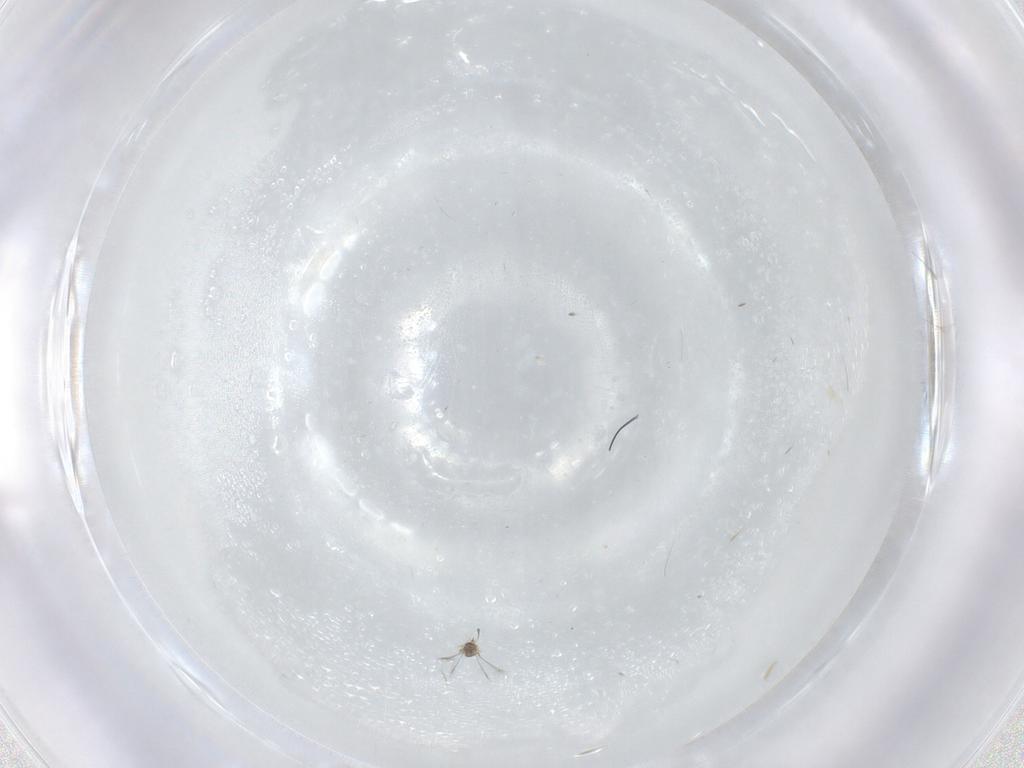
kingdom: Animalia
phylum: Arthropoda
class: Insecta
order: Hymenoptera
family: Mymaridae
